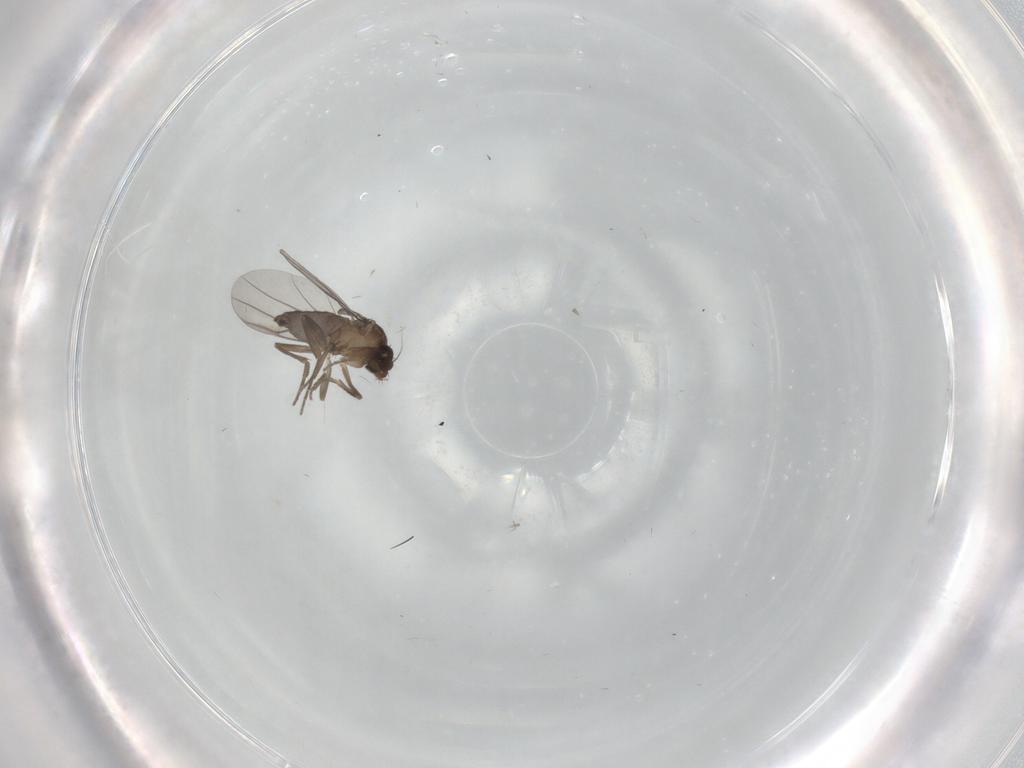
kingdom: Animalia
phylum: Arthropoda
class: Insecta
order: Diptera
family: Phoridae
